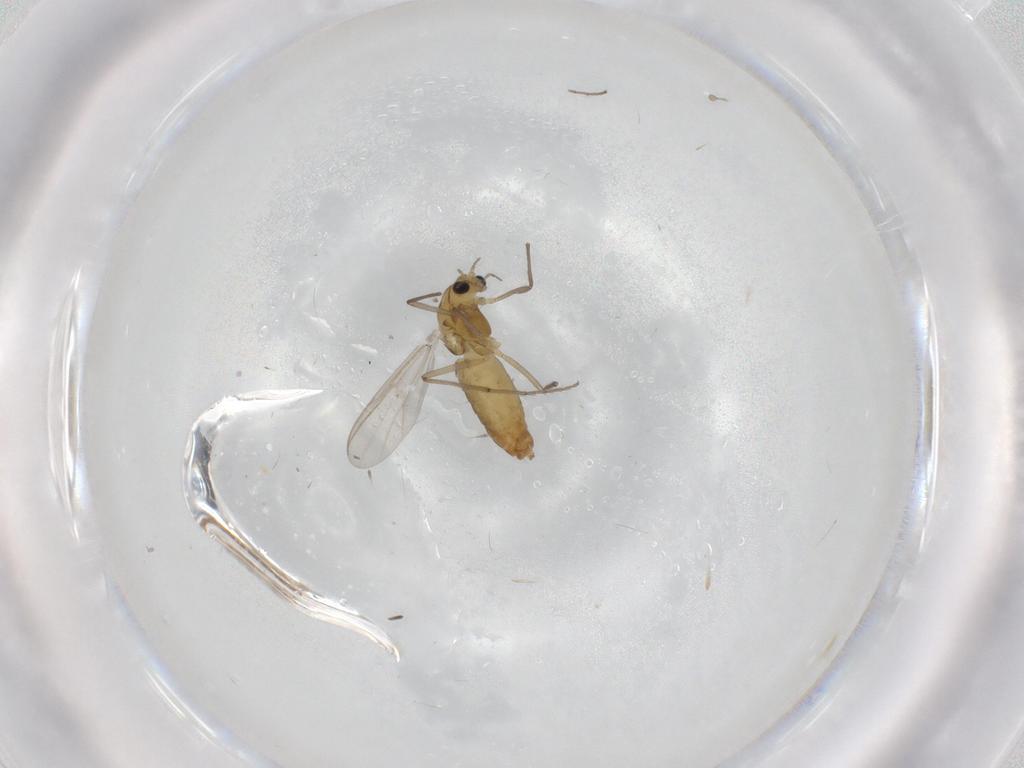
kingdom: Animalia
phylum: Arthropoda
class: Insecta
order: Diptera
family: Chironomidae
